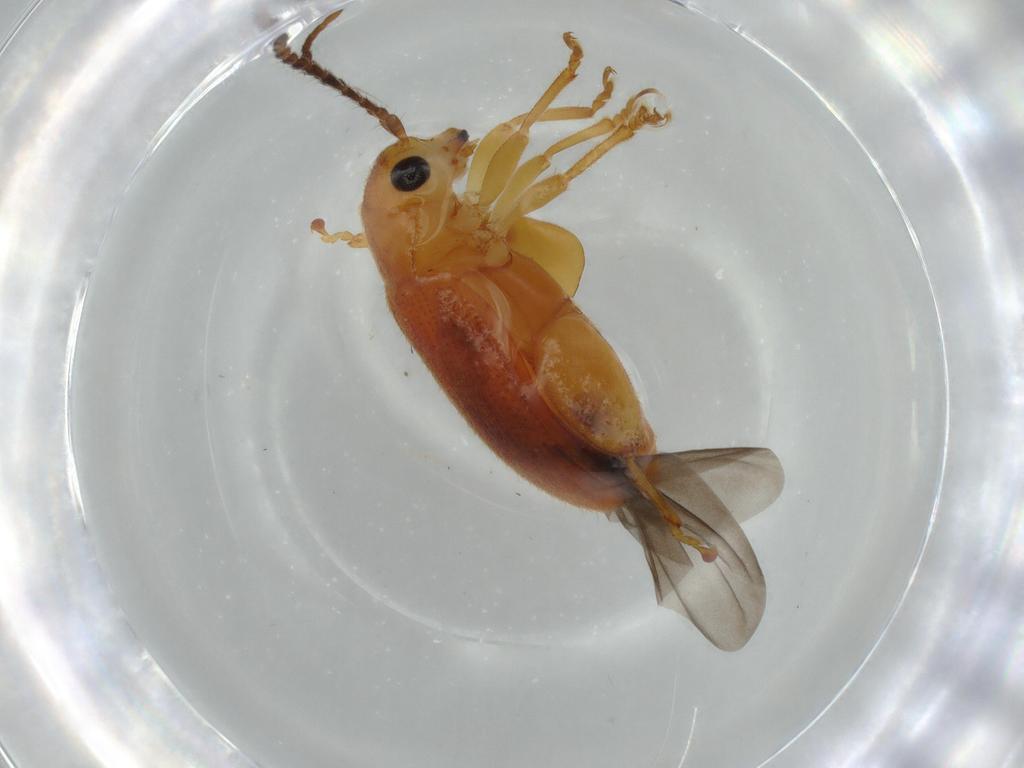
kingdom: Animalia
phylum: Arthropoda
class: Insecta
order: Coleoptera
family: Chrysomelidae
